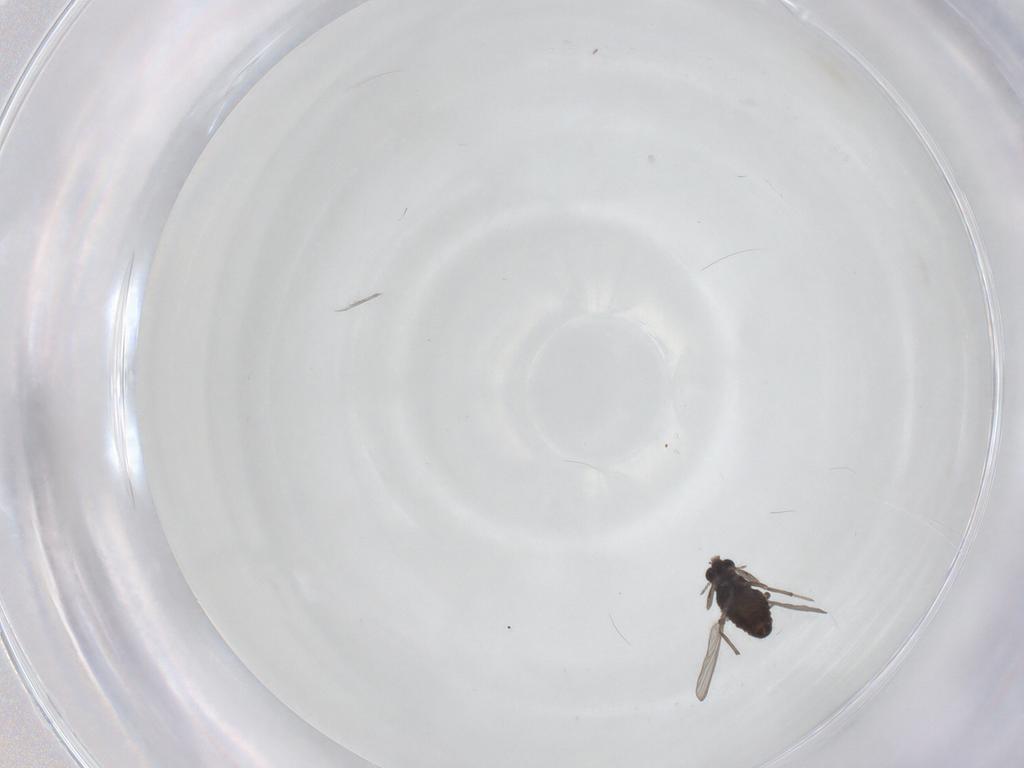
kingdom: Animalia
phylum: Arthropoda
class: Insecta
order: Diptera
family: Chironomidae
